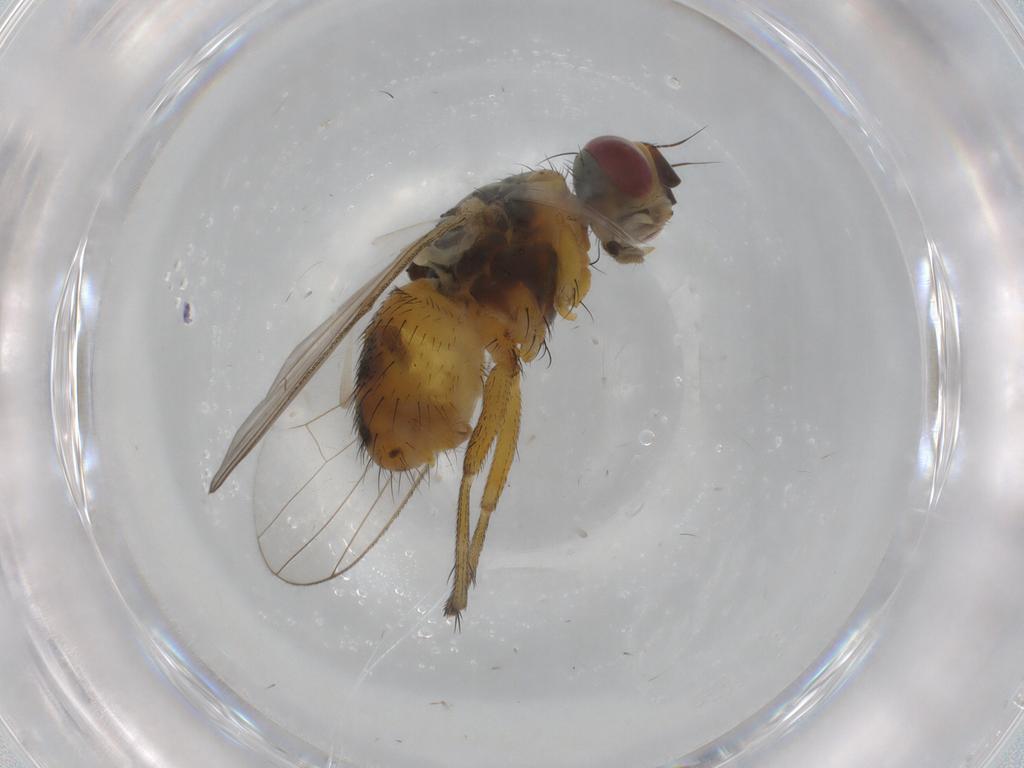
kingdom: Animalia
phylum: Arthropoda
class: Insecta
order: Diptera
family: Muscidae
